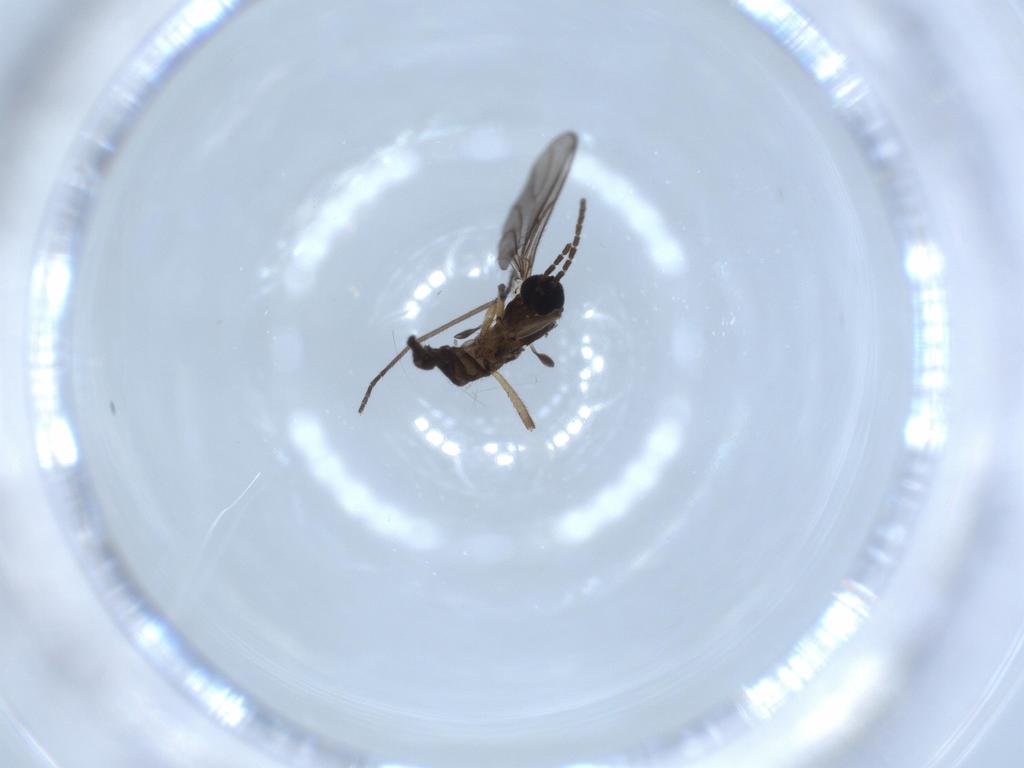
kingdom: Animalia
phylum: Arthropoda
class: Insecta
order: Diptera
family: Sciaridae
